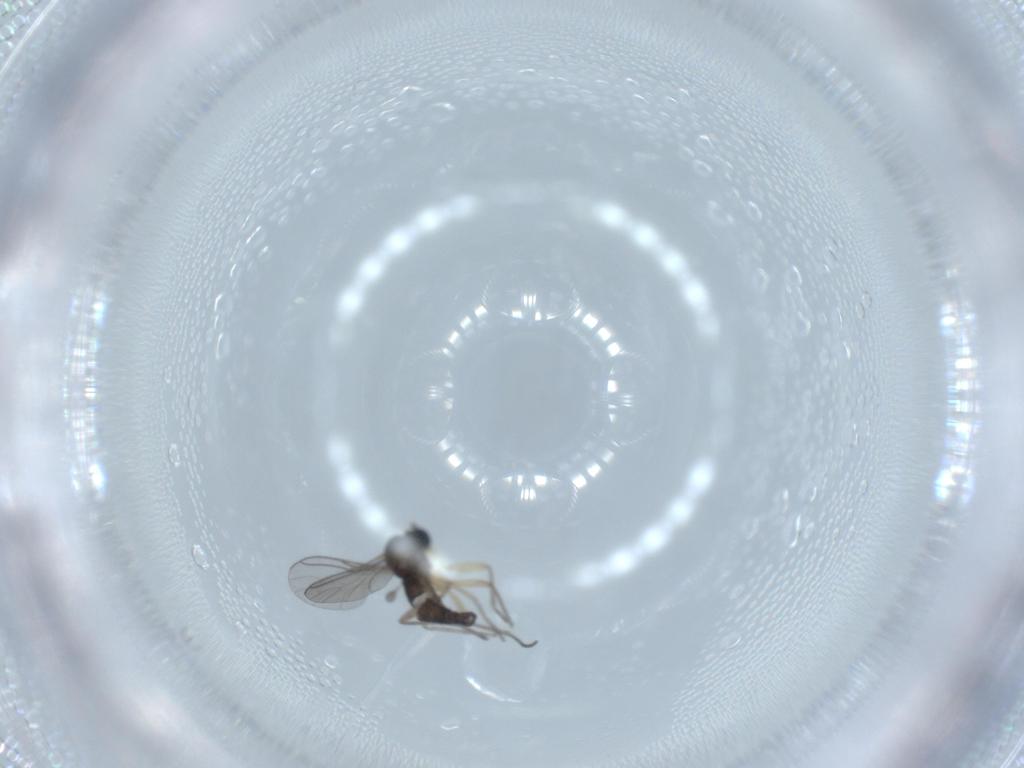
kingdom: Animalia
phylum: Arthropoda
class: Insecta
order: Diptera
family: Sciaridae
